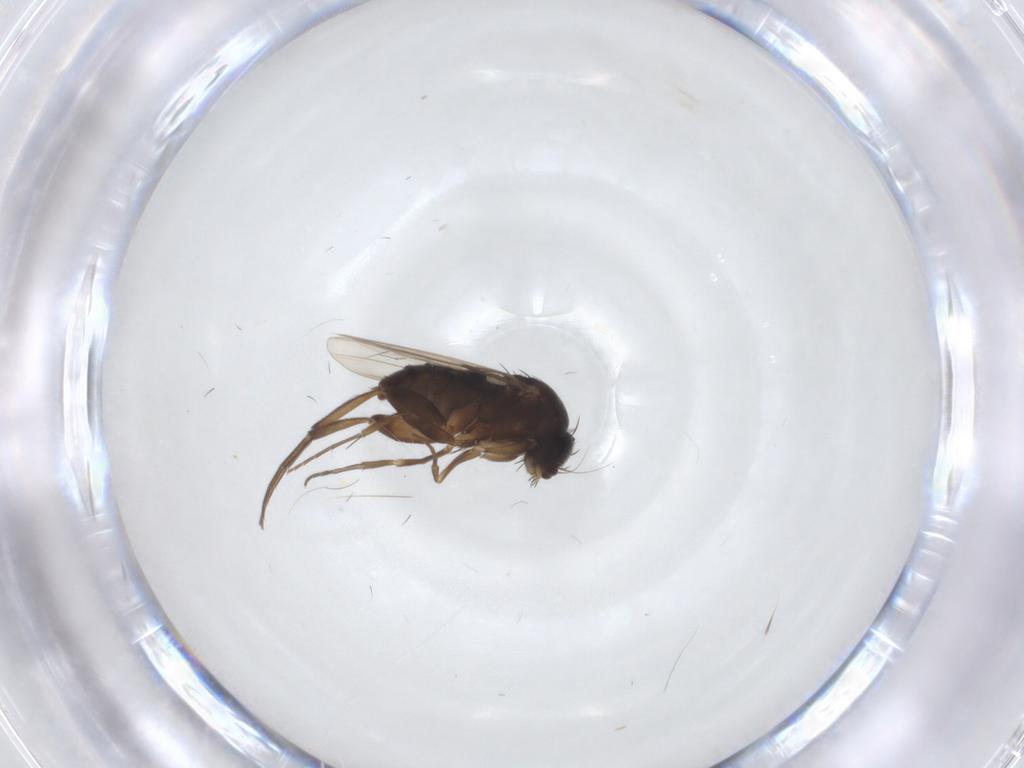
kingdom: Animalia
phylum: Arthropoda
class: Insecta
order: Diptera
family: Phoridae
